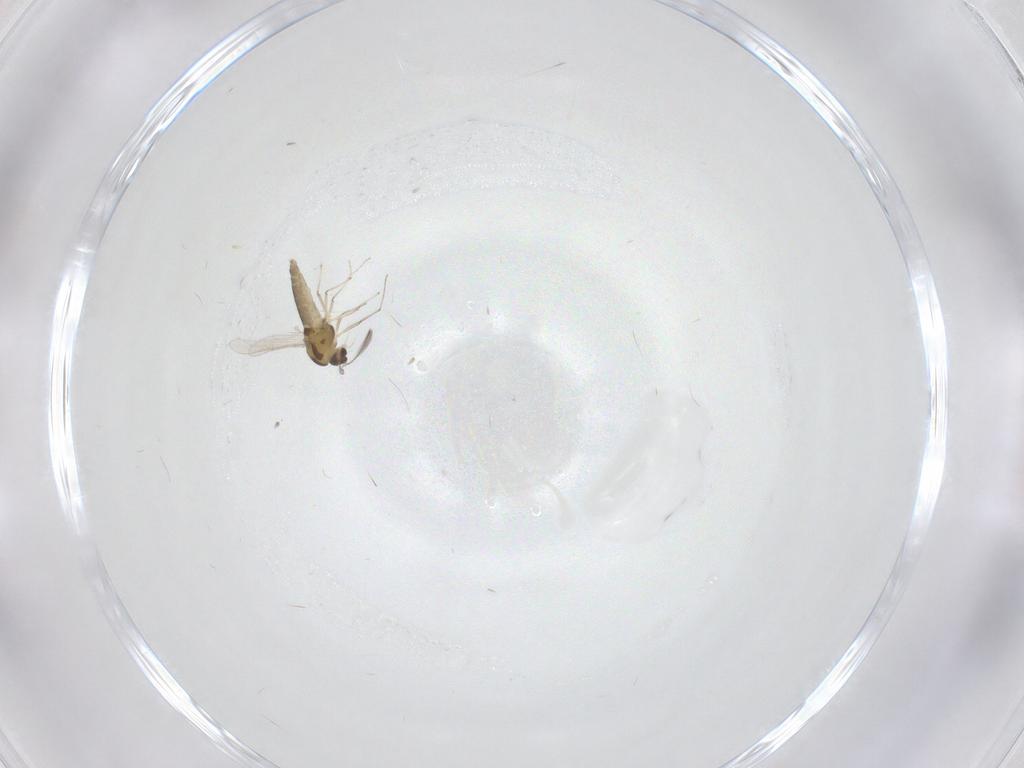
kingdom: Animalia
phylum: Arthropoda
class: Insecta
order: Diptera
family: Chironomidae
